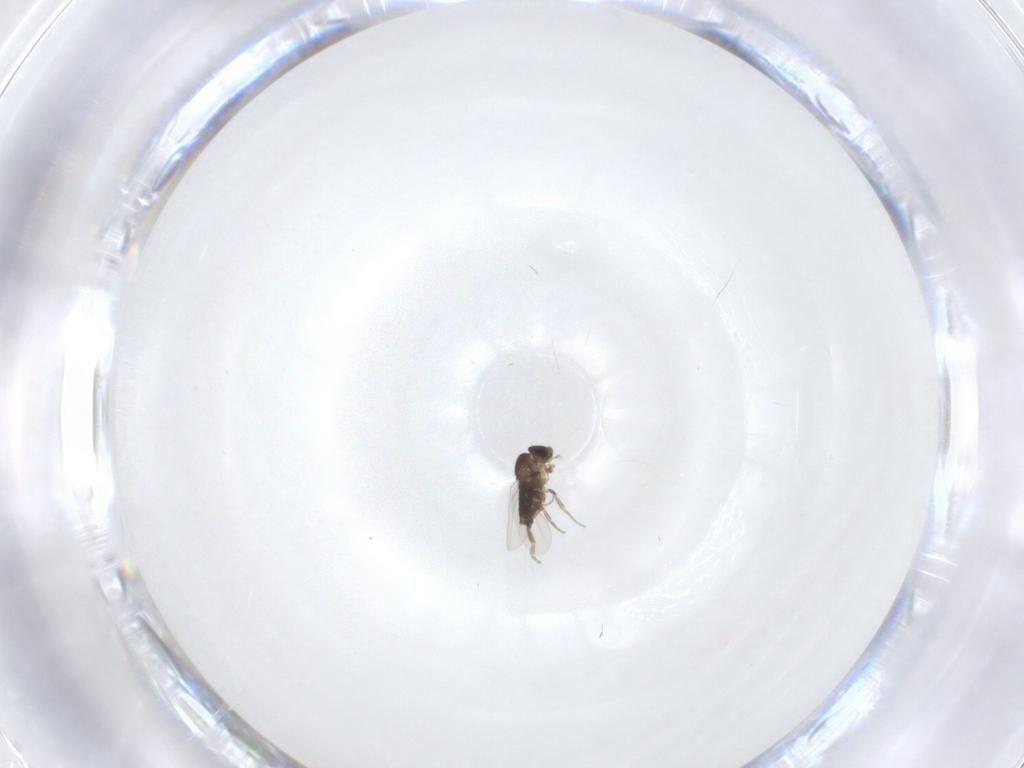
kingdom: Animalia
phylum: Arthropoda
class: Insecta
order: Diptera
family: Phoridae
